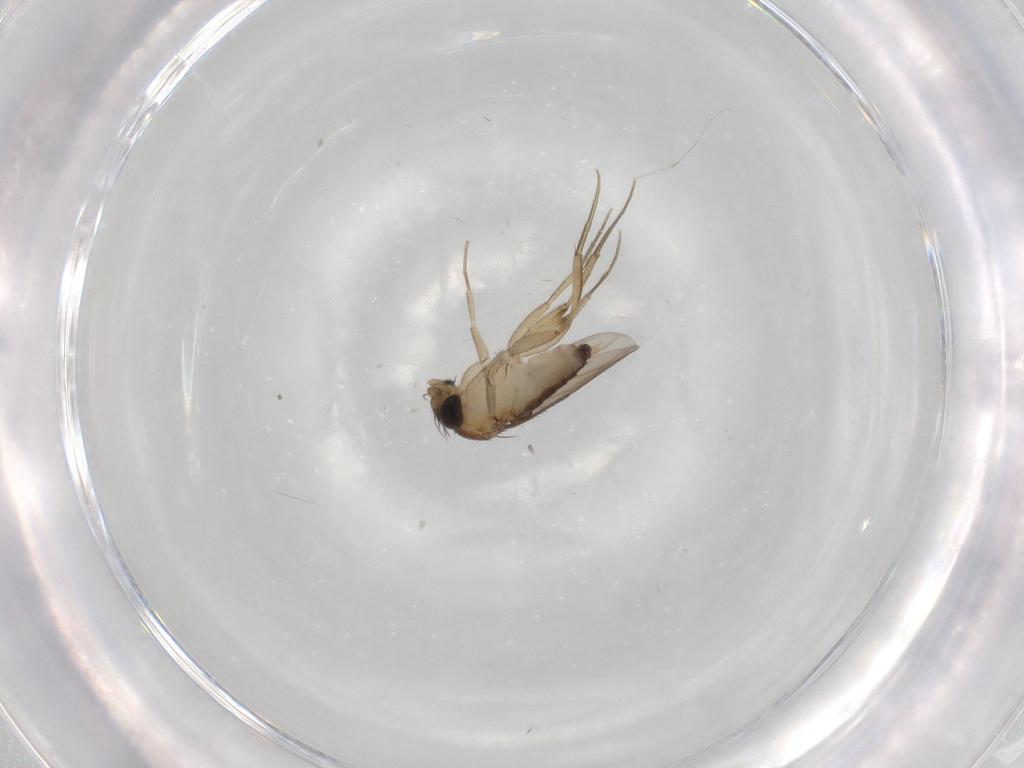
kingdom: Animalia
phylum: Arthropoda
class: Insecta
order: Diptera
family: Phoridae
